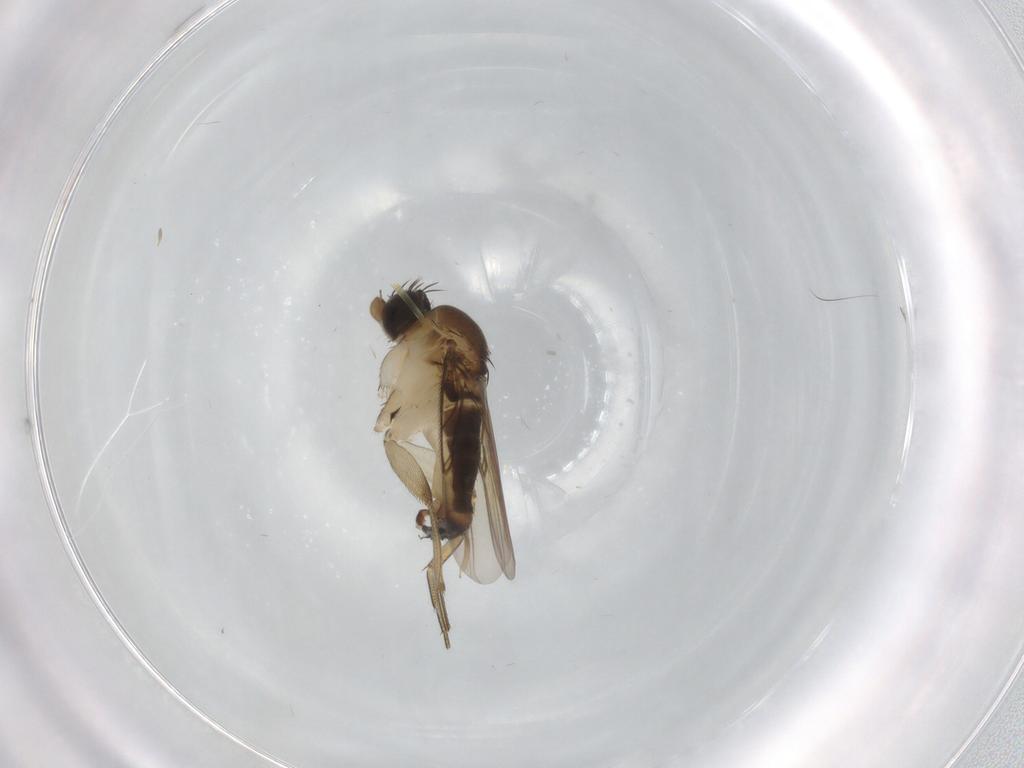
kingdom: Animalia
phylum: Arthropoda
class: Insecta
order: Diptera
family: Phoridae
